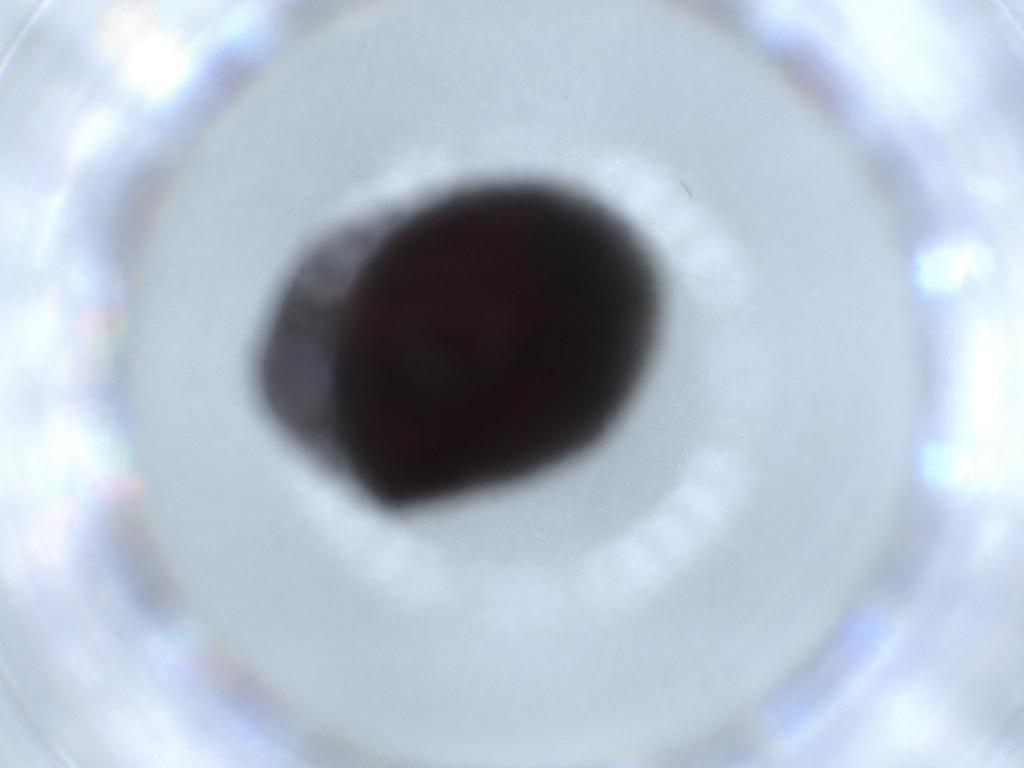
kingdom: Animalia
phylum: Arthropoda
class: Insecta
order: Coleoptera
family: Ptinidae
